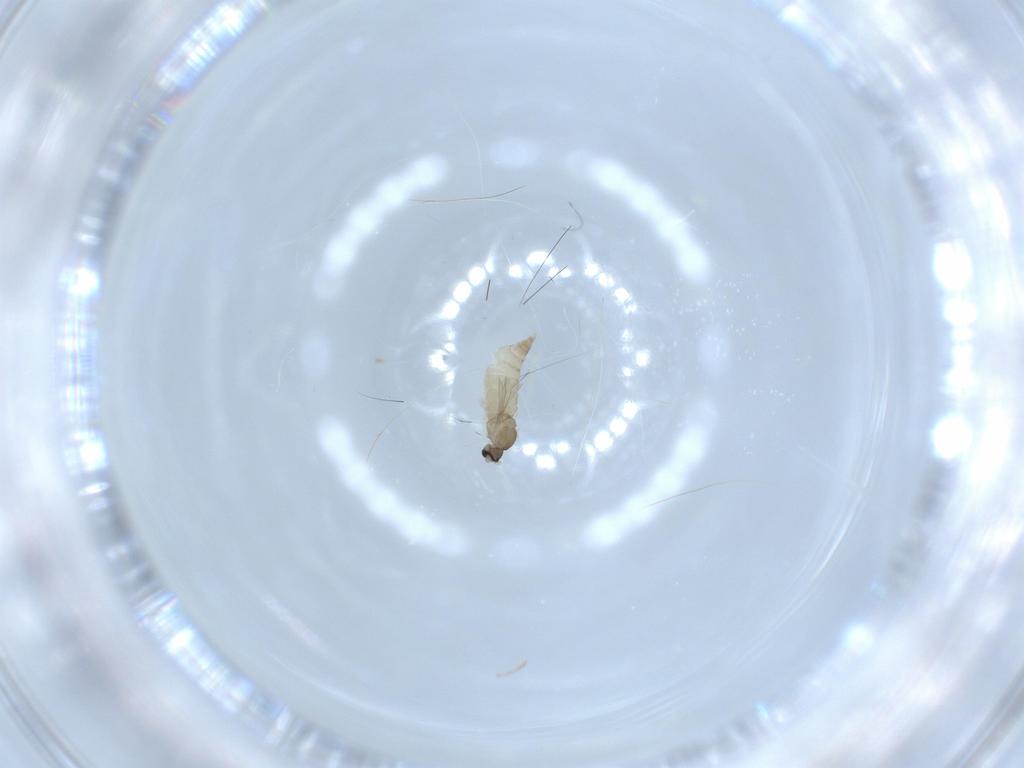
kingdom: Animalia
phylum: Arthropoda
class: Insecta
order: Diptera
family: Cecidomyiidae
